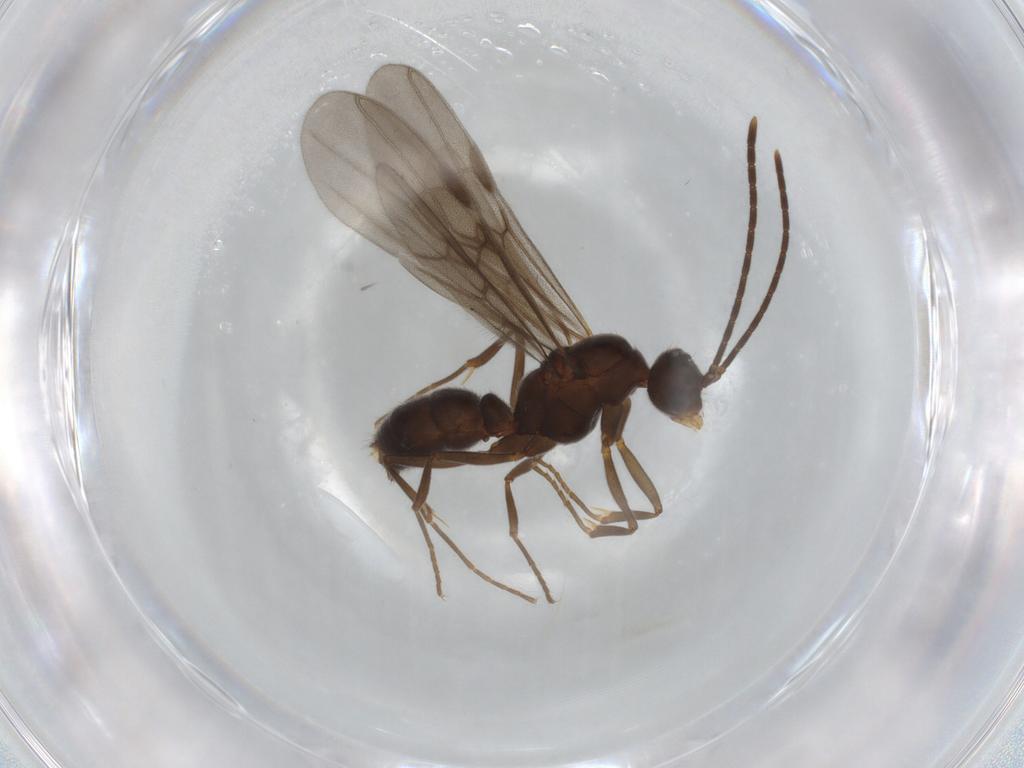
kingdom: Animalia
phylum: Arthropoda
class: Insecta
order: Hymenoptera
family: Formicidae
